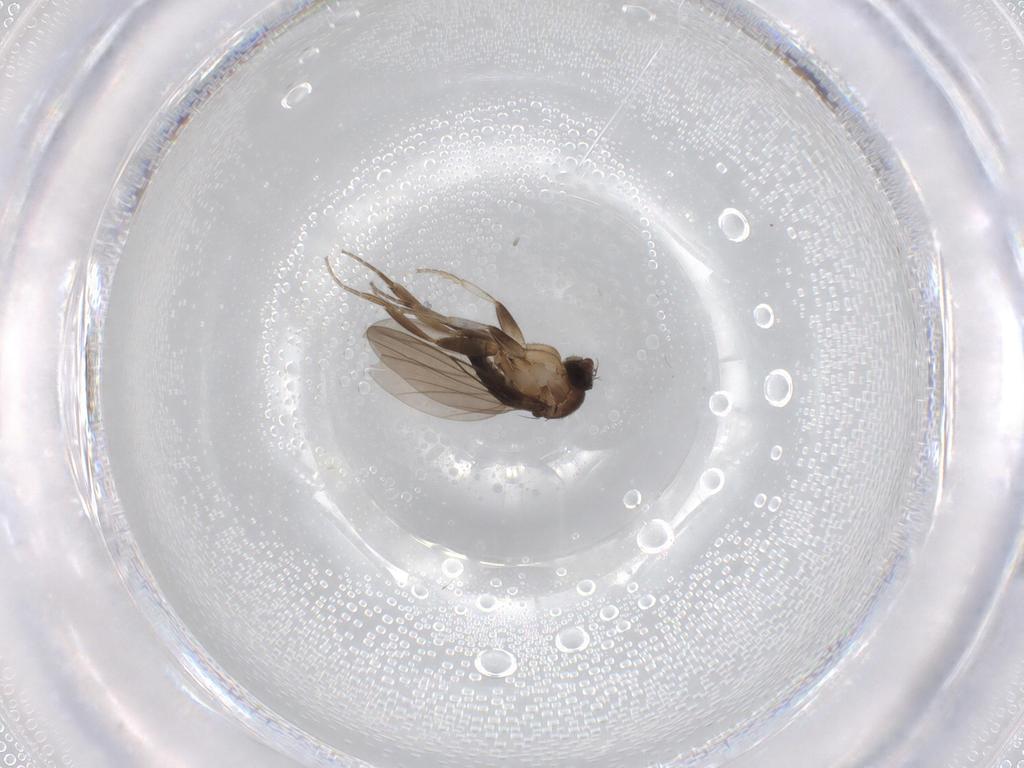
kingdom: Animalia
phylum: Arthropoda
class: Insecta
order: Diptera
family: Phoridae
